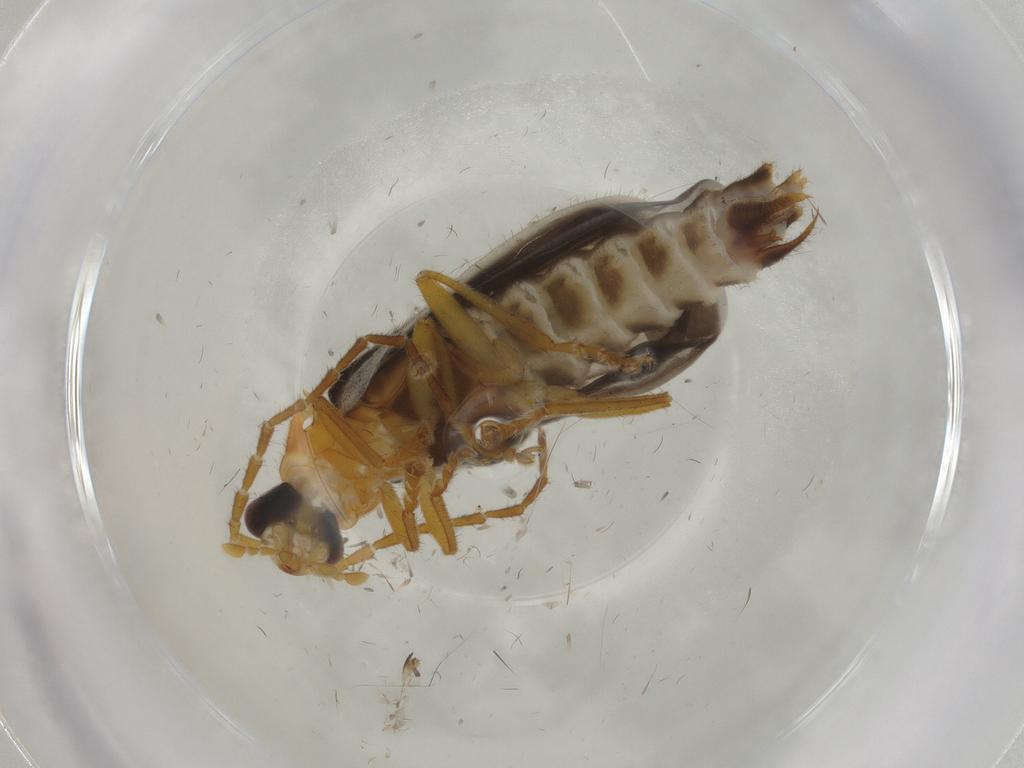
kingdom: Animalia
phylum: Arthropoda
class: Insecta
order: Coleoptera
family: Cantharidae
